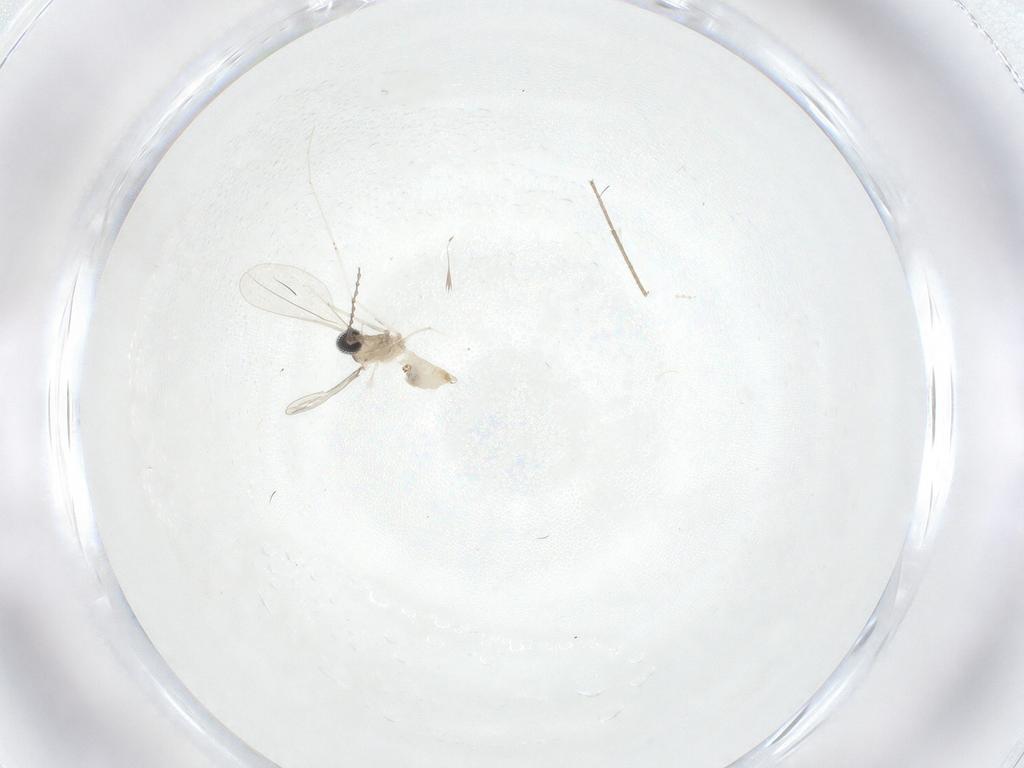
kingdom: Animalia
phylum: Arthropoda
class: Insecta
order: Diptera
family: Cecidomyiidae
